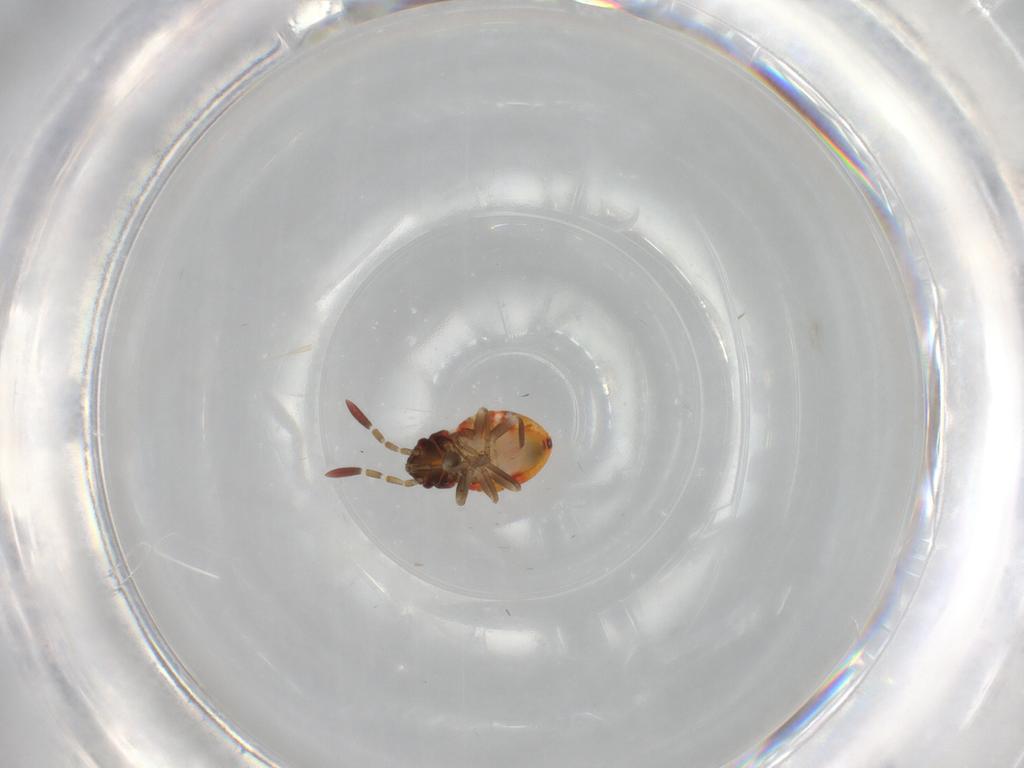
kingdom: Animalia
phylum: Arthropoda
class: Insecta
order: Hemiptera
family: Rhyparochromidae
